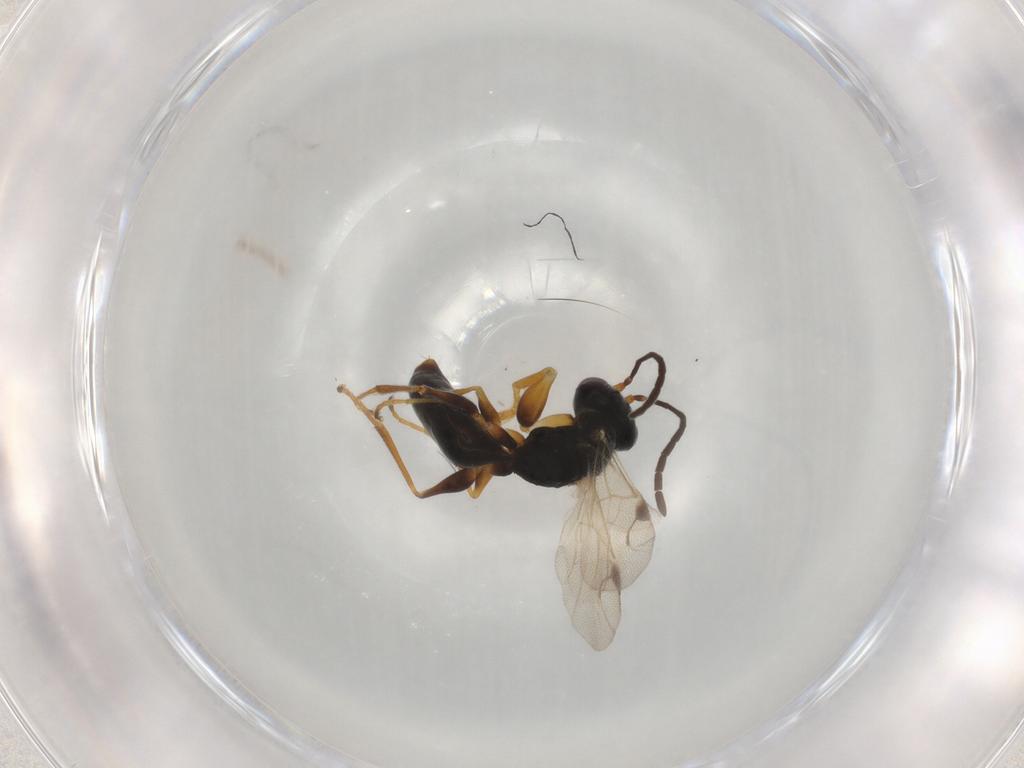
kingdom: Animalia
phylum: Arthropoda
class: Insecta
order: Hymenoptera
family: Dryinidae
